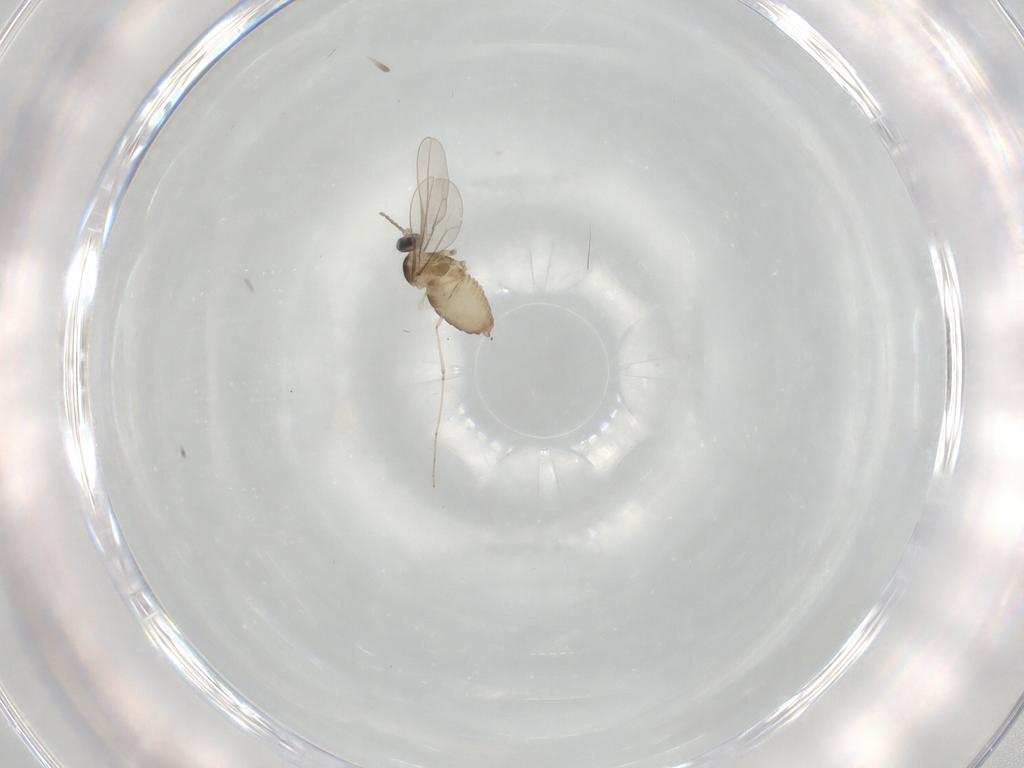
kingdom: Animalia
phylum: Arthropoda
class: Insecta
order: Diptera
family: Cecidomyiidae
